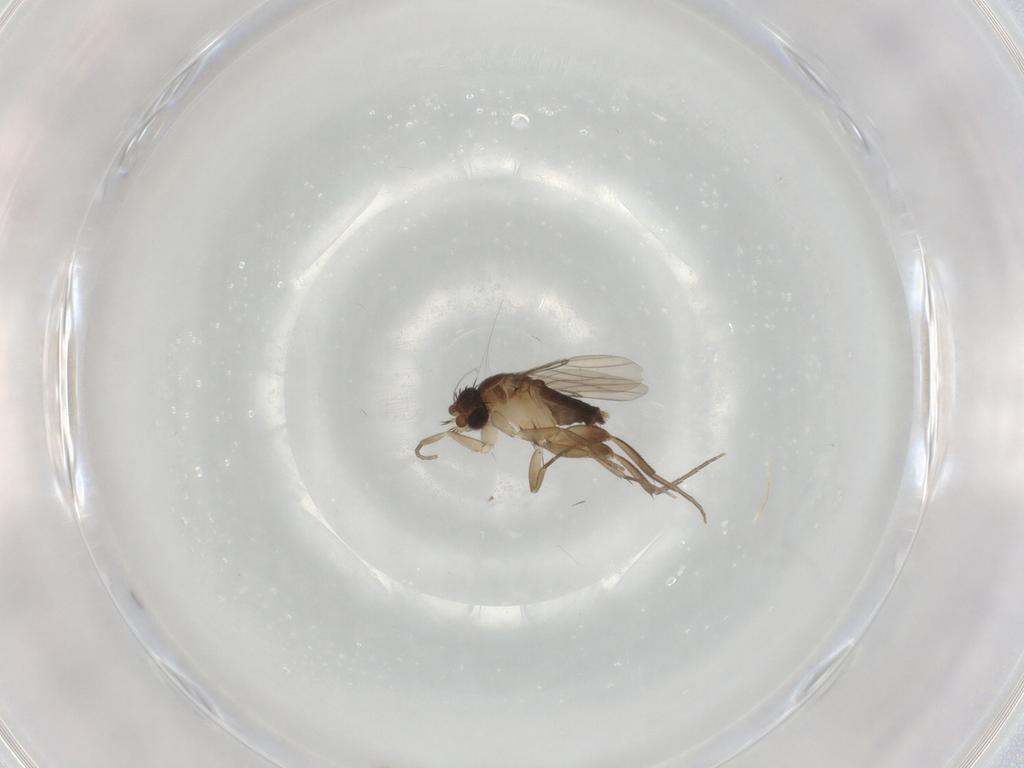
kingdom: Animalia
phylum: Arthropoda
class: Insecta
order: Diptera
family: Phoridae
